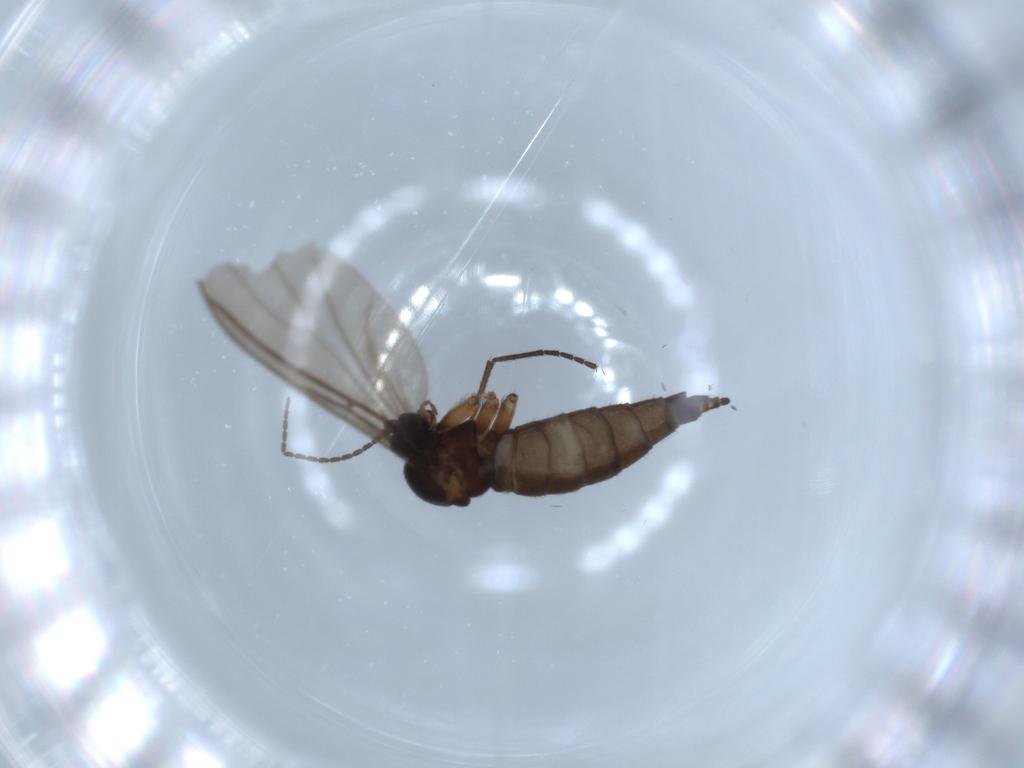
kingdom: Animalia
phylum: Arthropoda
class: Insecta
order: Diptera
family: Sciaridae
